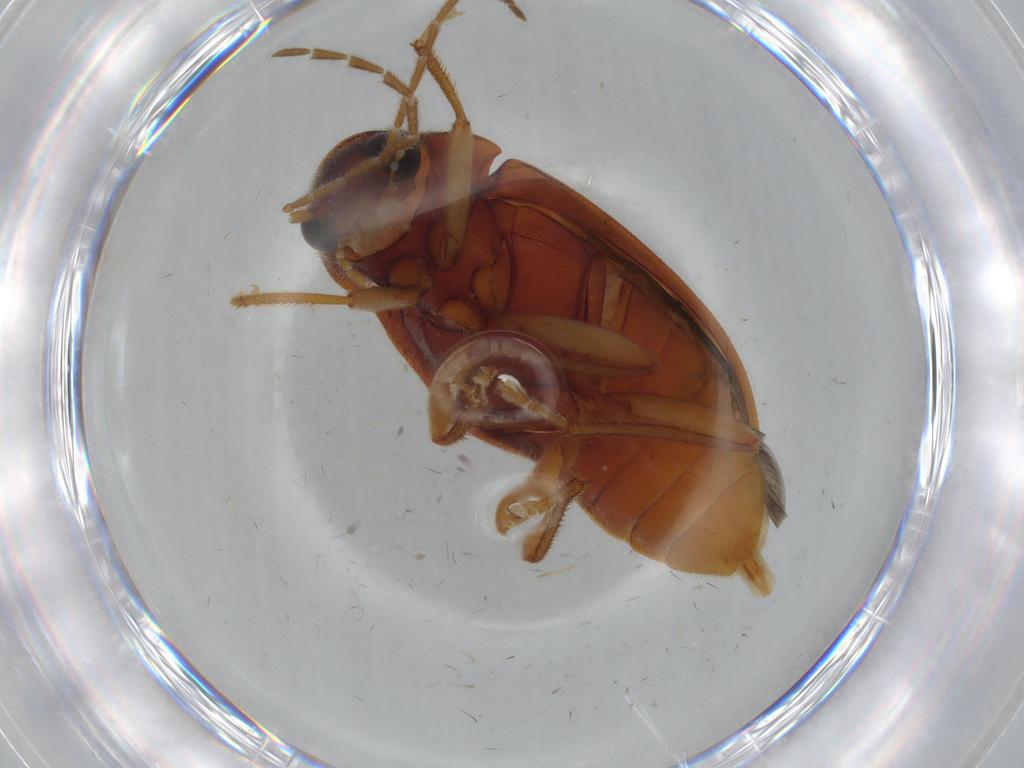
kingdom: Animalia
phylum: Arthropoda
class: Insecta
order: Coleoptera
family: Ptilodactylidae
